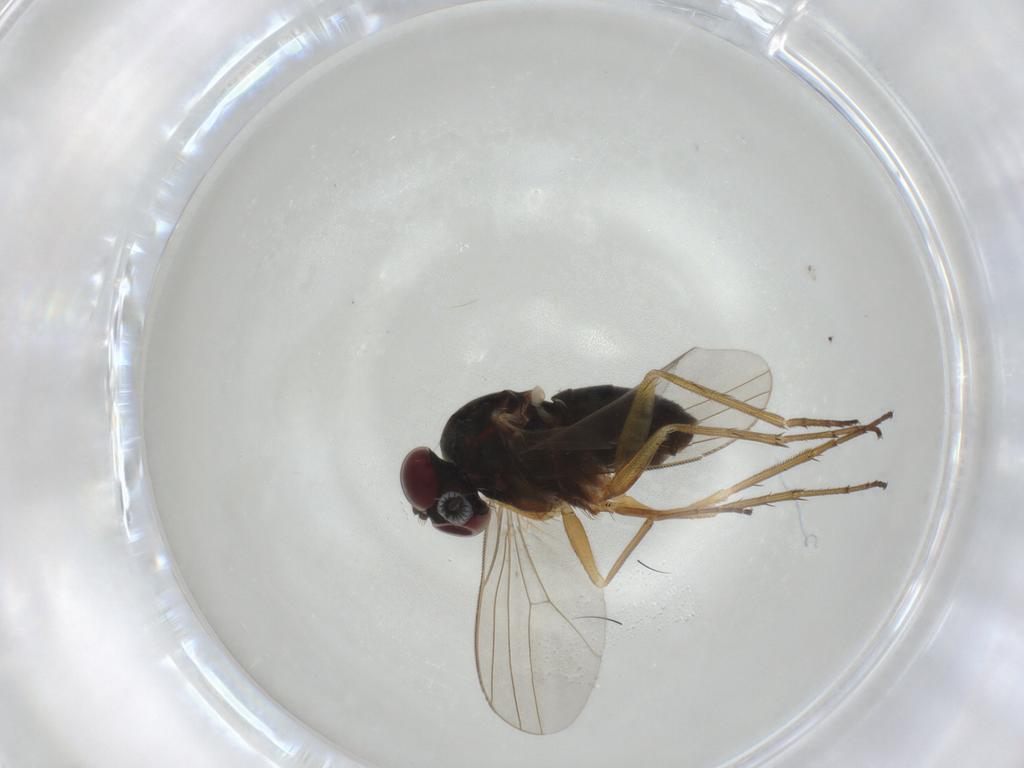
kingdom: Animalia
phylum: Arthropoda
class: Insecta
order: Diptera
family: Dolichopodidae
